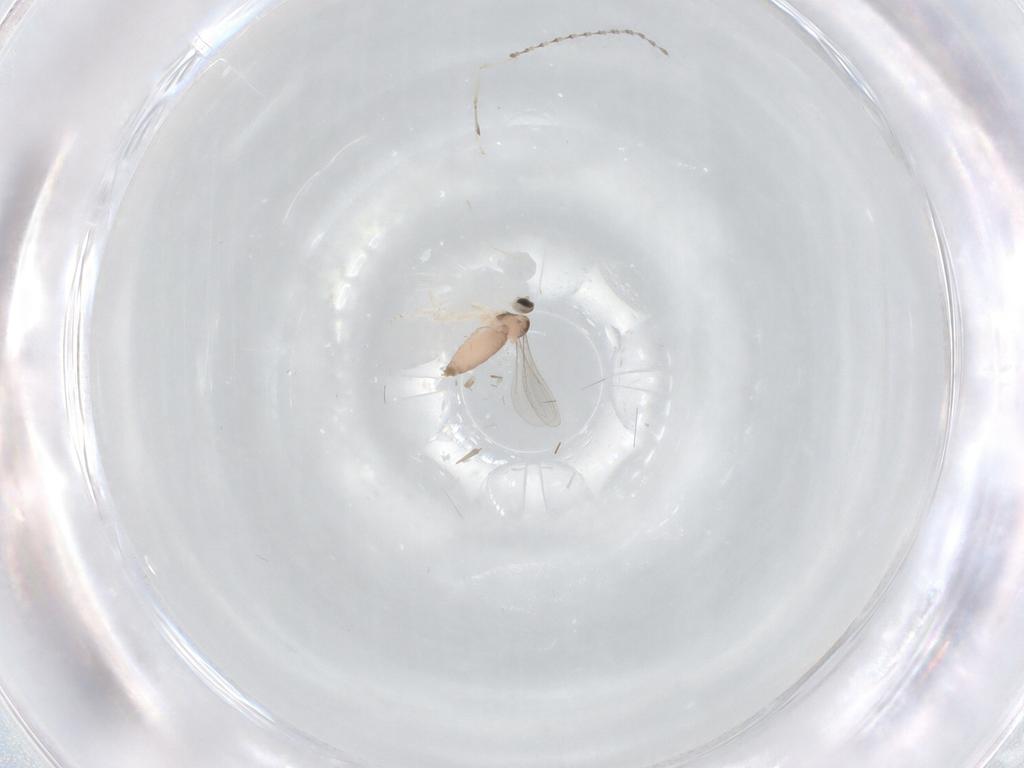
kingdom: Animalia
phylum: Arthropoda
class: Insecta
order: Diptera
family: Cecidomyiidae
